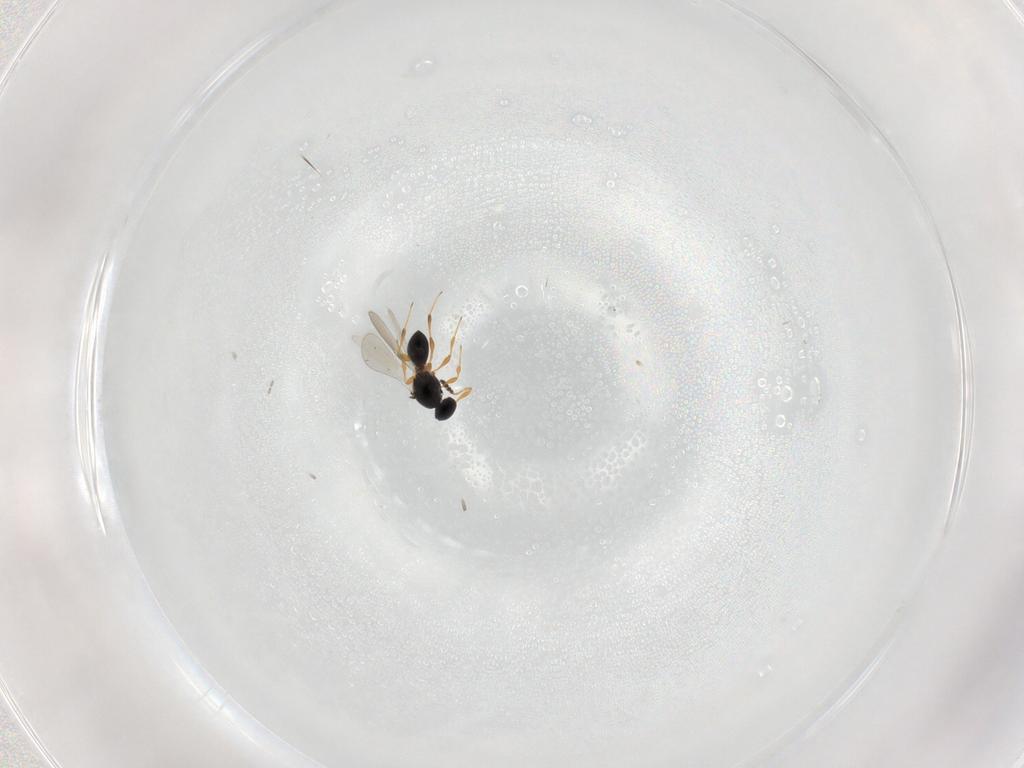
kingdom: Animalia
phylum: Arthropoda
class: Insecta
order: Hymenoptera
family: Platygastridae
